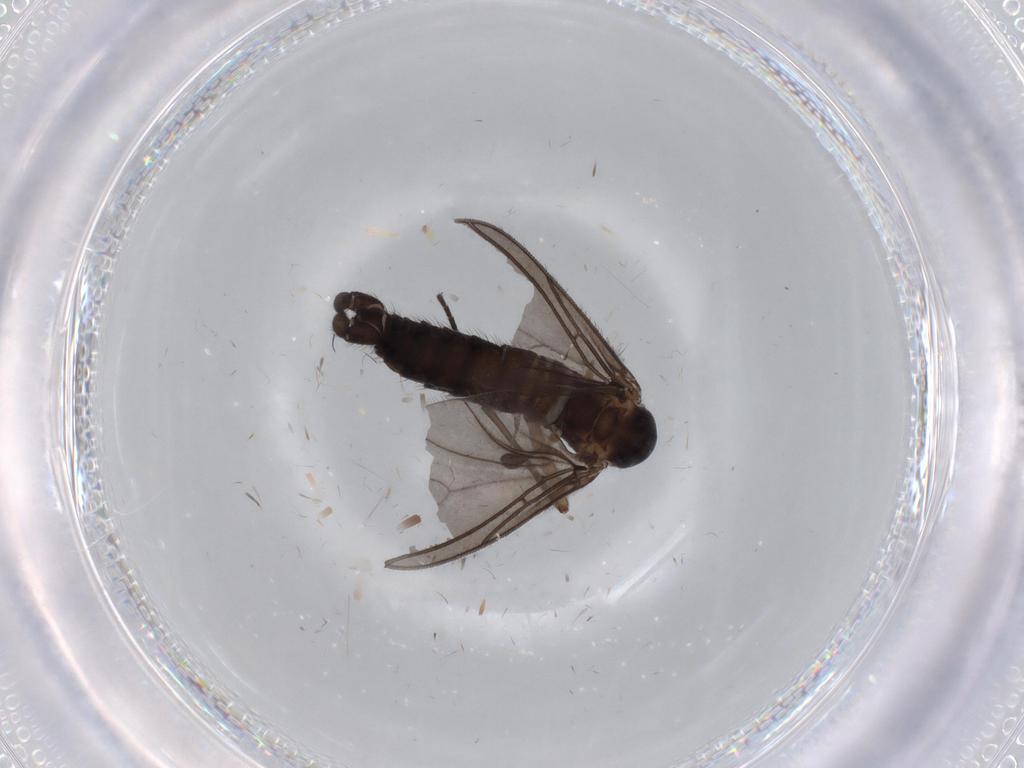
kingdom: Animalia
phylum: Arthropoda
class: Insecta
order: Diptera
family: Sciaridae
